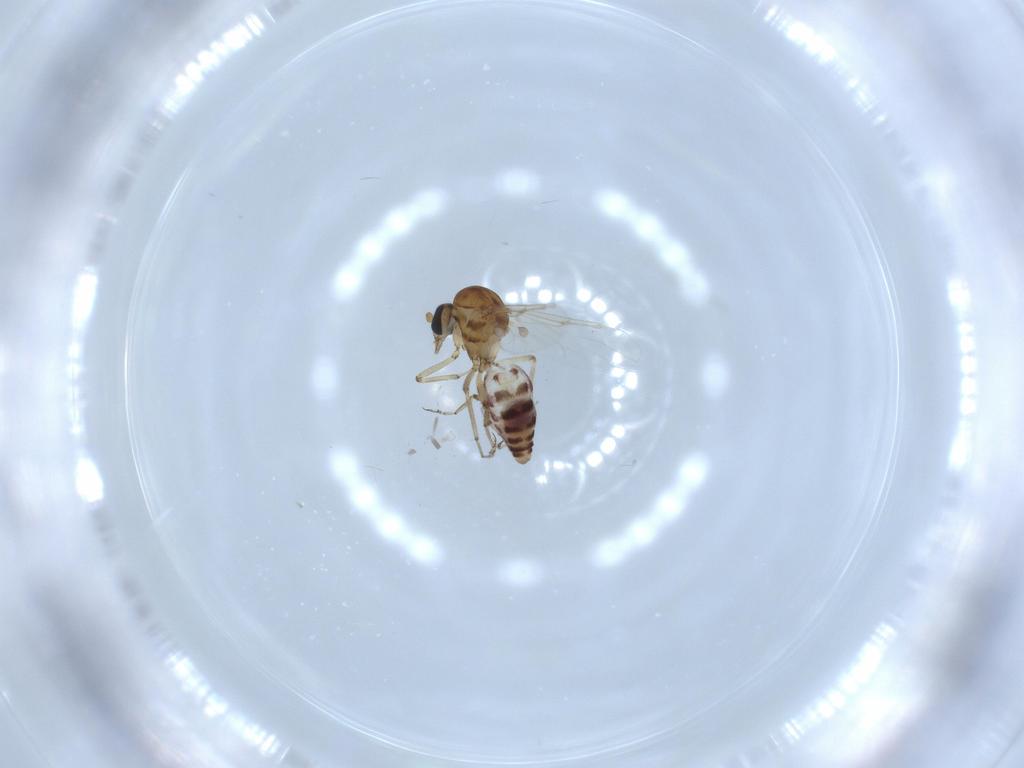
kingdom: Animalia
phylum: Arthropoda
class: Insecta
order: Diptera
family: Ceratopogonidae
